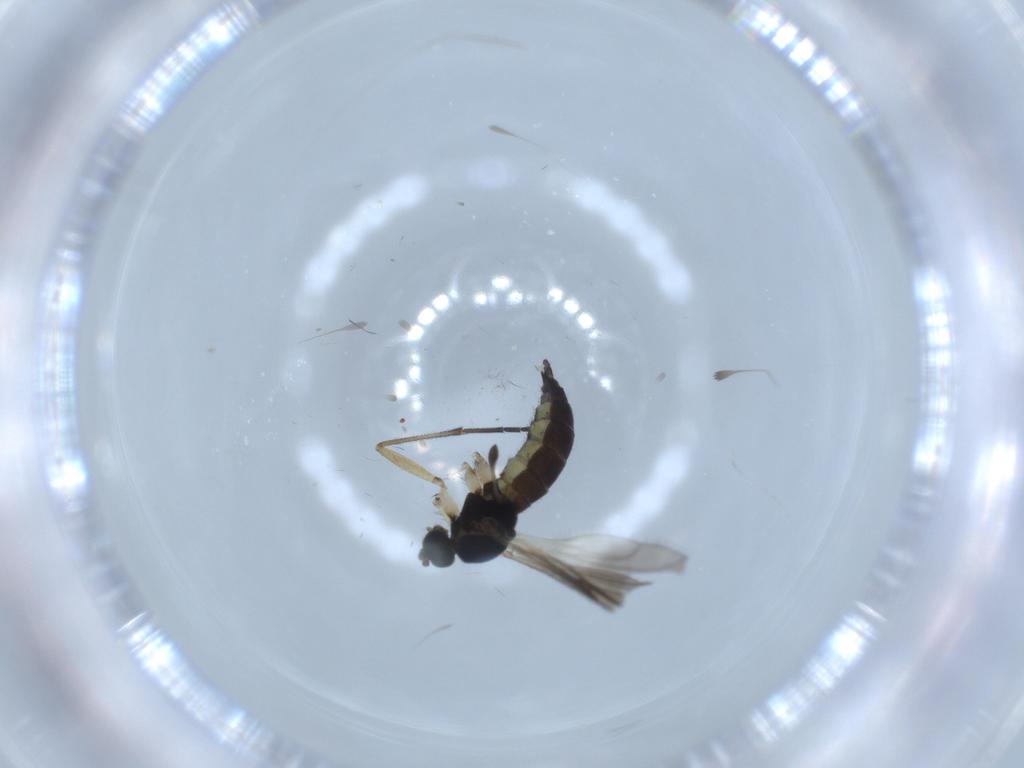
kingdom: Animalia
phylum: Arthropoda
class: Insecta
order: Diptera
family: Sciaridae
